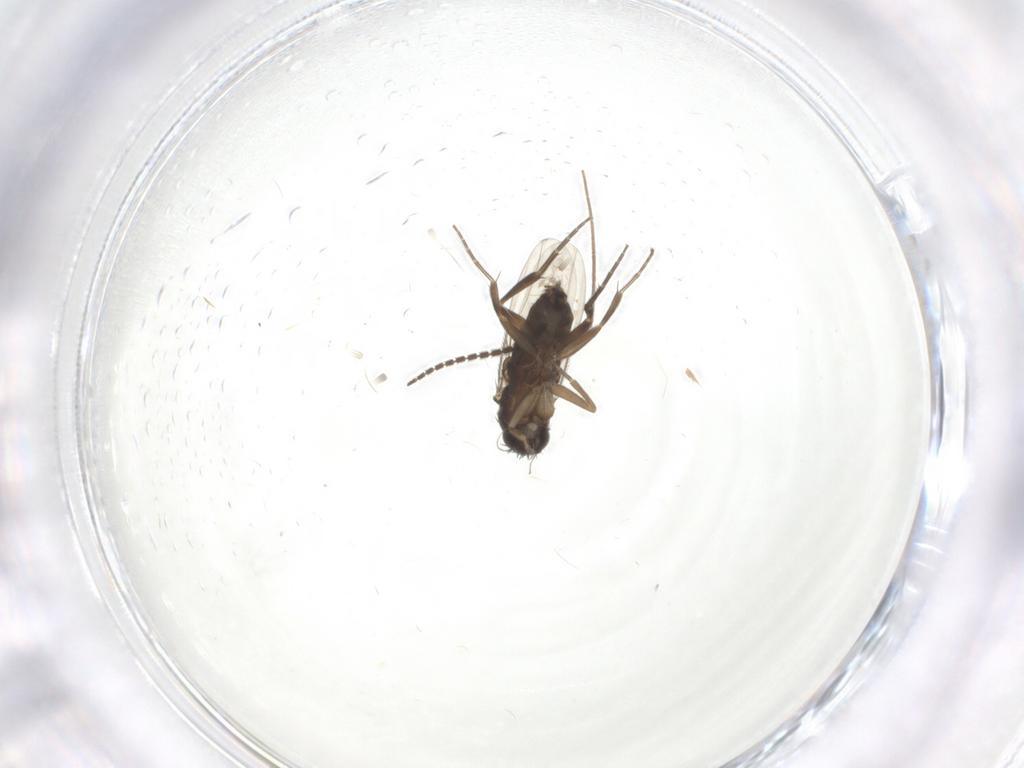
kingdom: Animalia
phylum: Arthropoda
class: Insecta
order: Diptera
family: Phoridae
